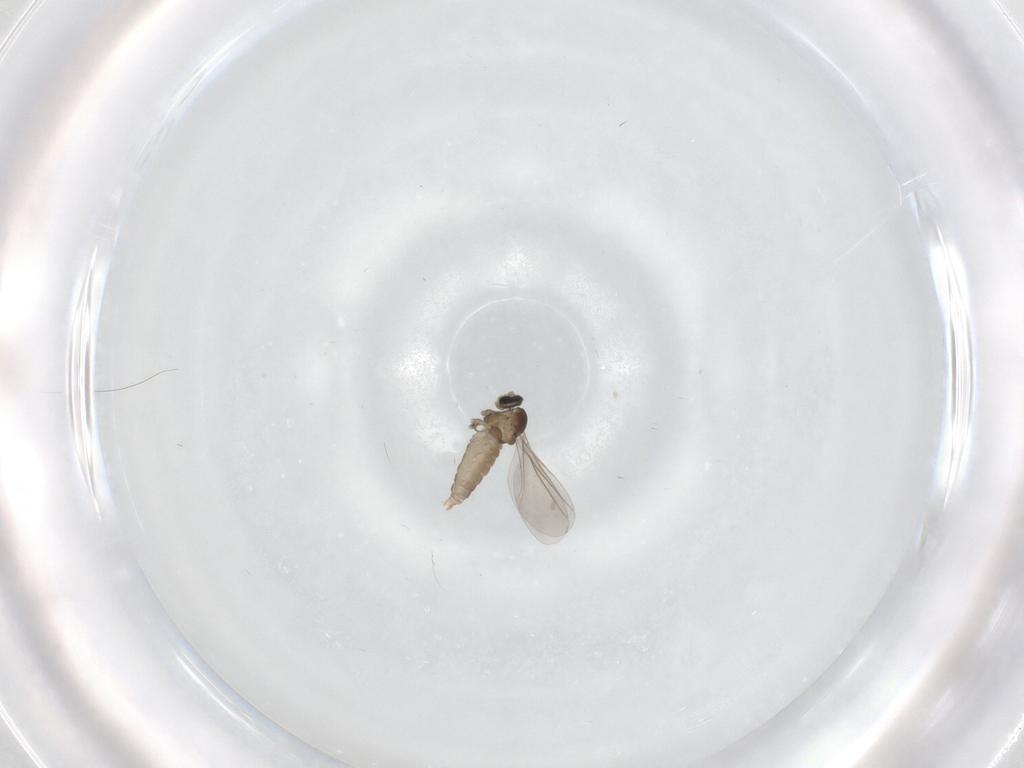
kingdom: Animalia
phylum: Arthropoda
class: Insecta
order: Diptera
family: Cecidomyiidae
